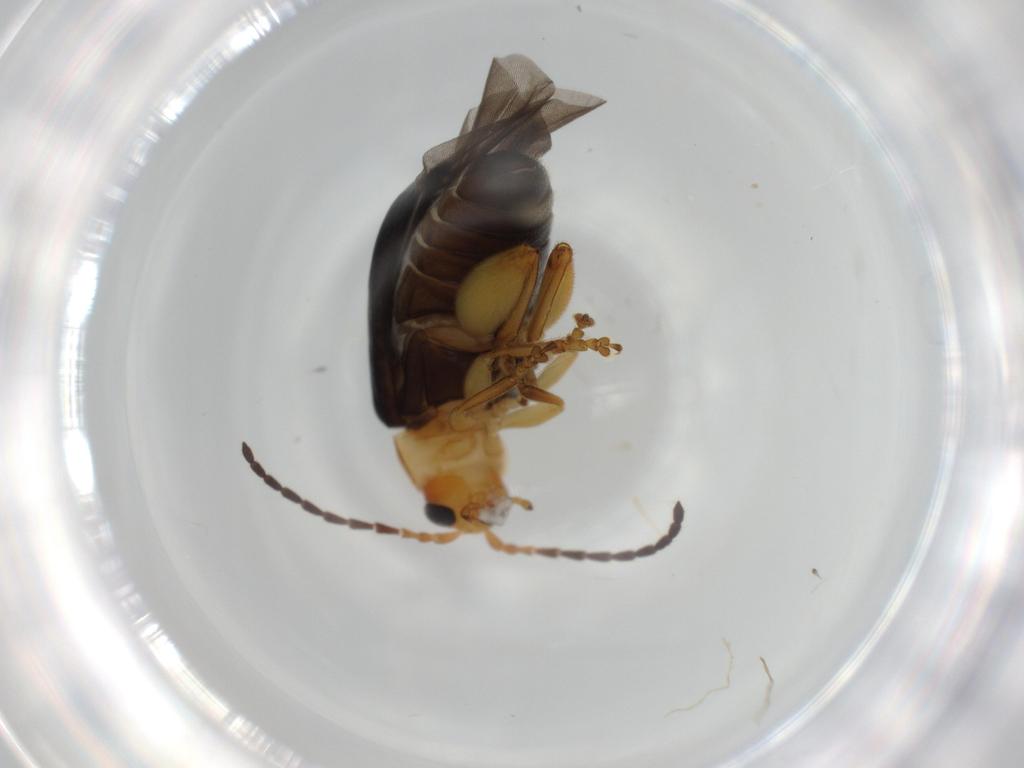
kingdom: Animalia
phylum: Arthropoda
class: Insecta
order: Coleoptera
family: Chrysomelidae
